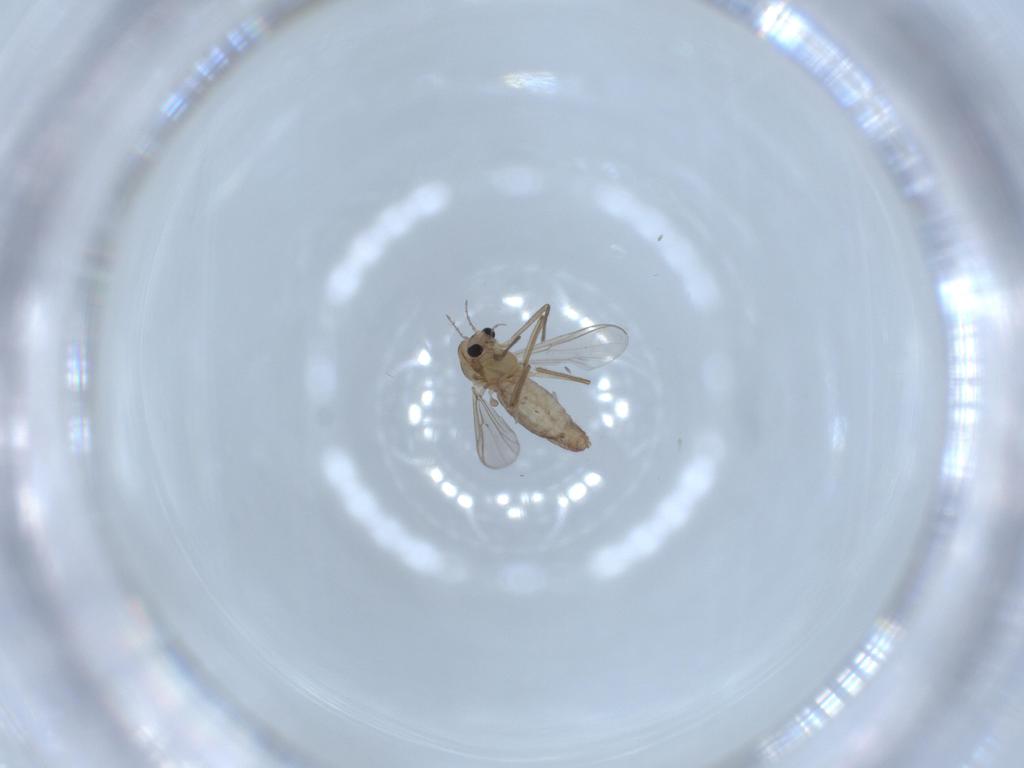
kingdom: Animalia
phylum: Arthropoda
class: Insecta
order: Diptera
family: Chironomidae
